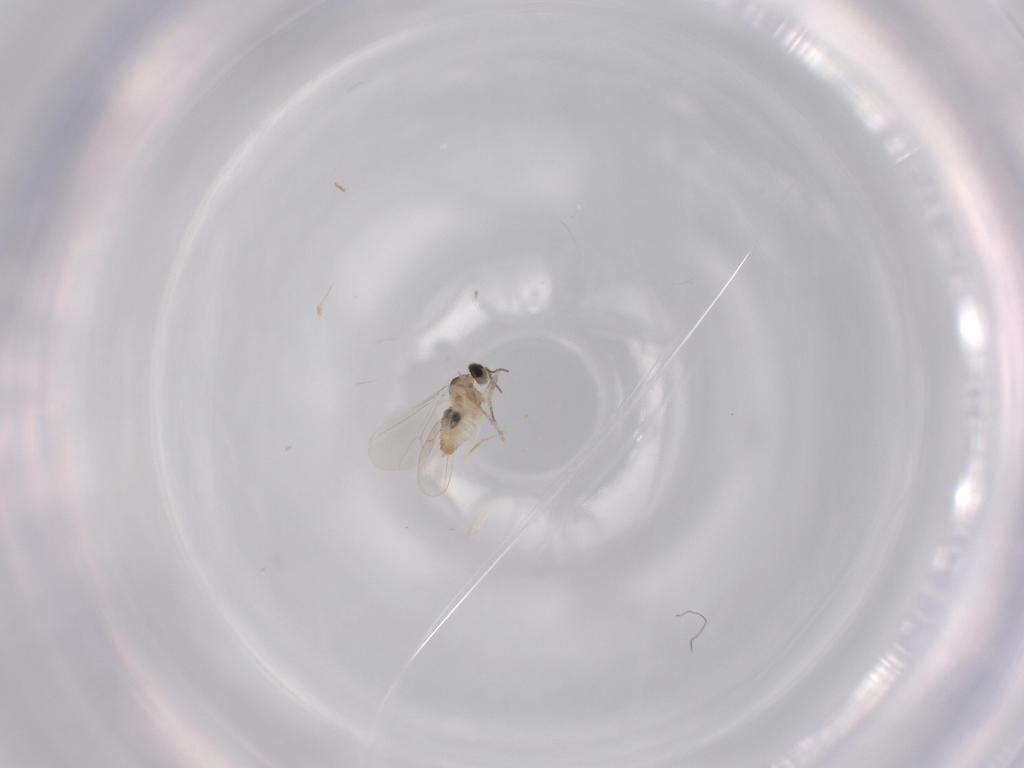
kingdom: Animalia
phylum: Arthropoda
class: Insecta
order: Diptera
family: Cecidomyiidae
